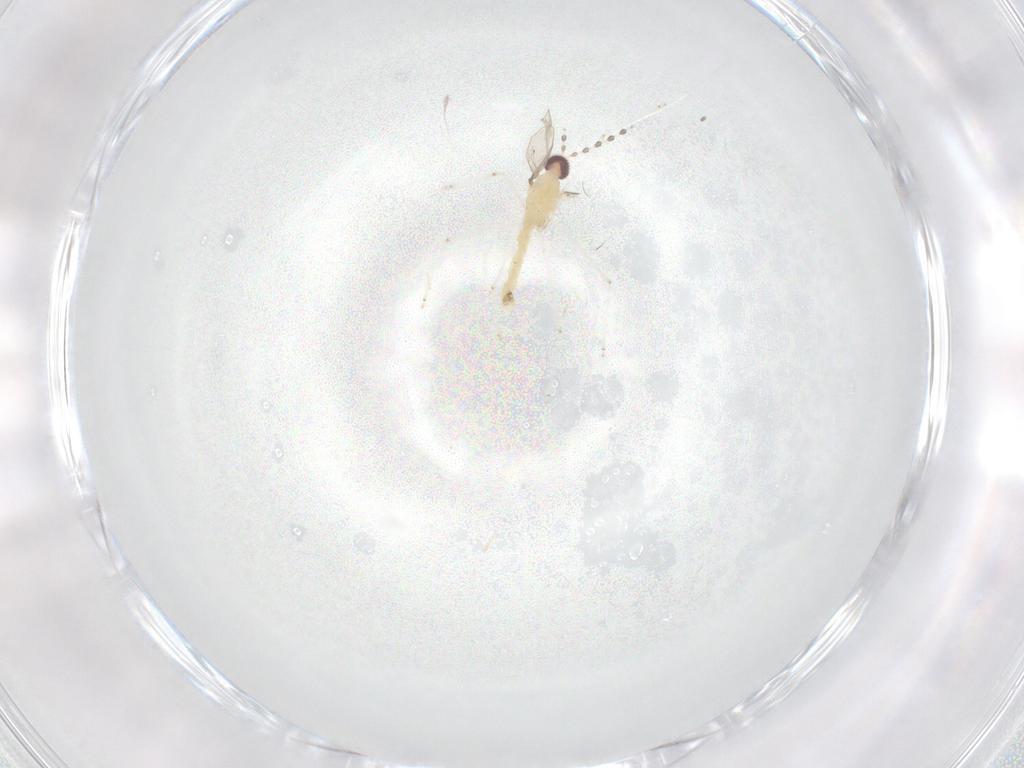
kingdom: Animalia
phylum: Arthropoda
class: Insecta
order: Diptera
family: Cecidomyiidae
